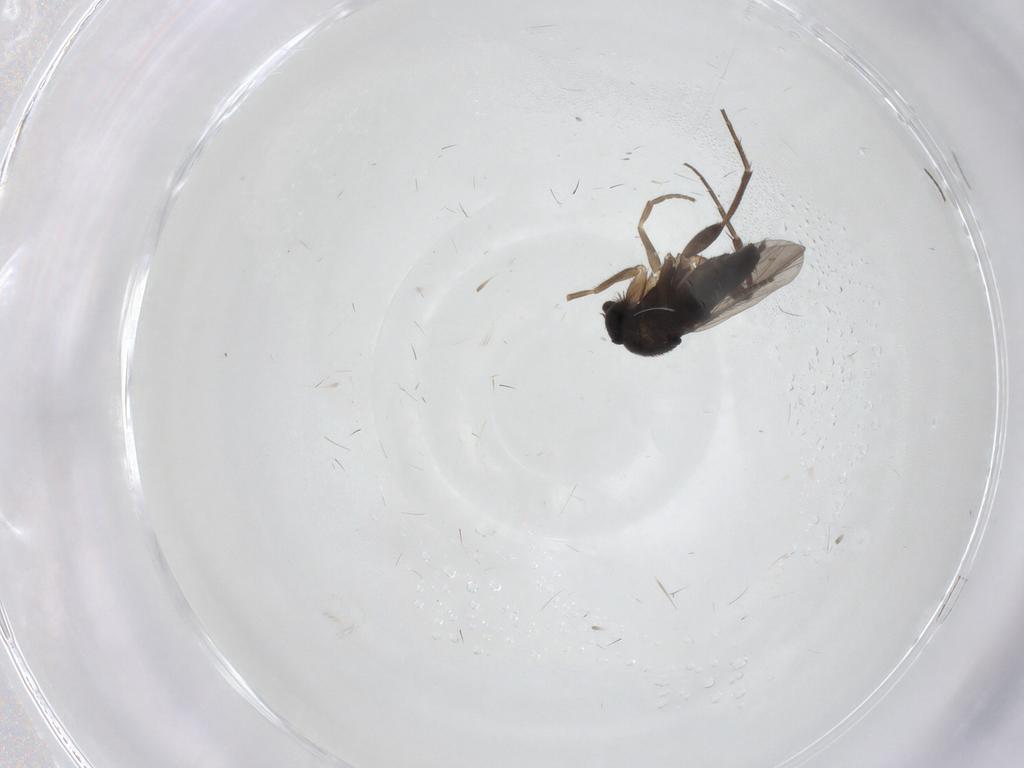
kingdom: Animalia
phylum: Arthropoda
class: Insecta
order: Diptera
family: Phoridae
